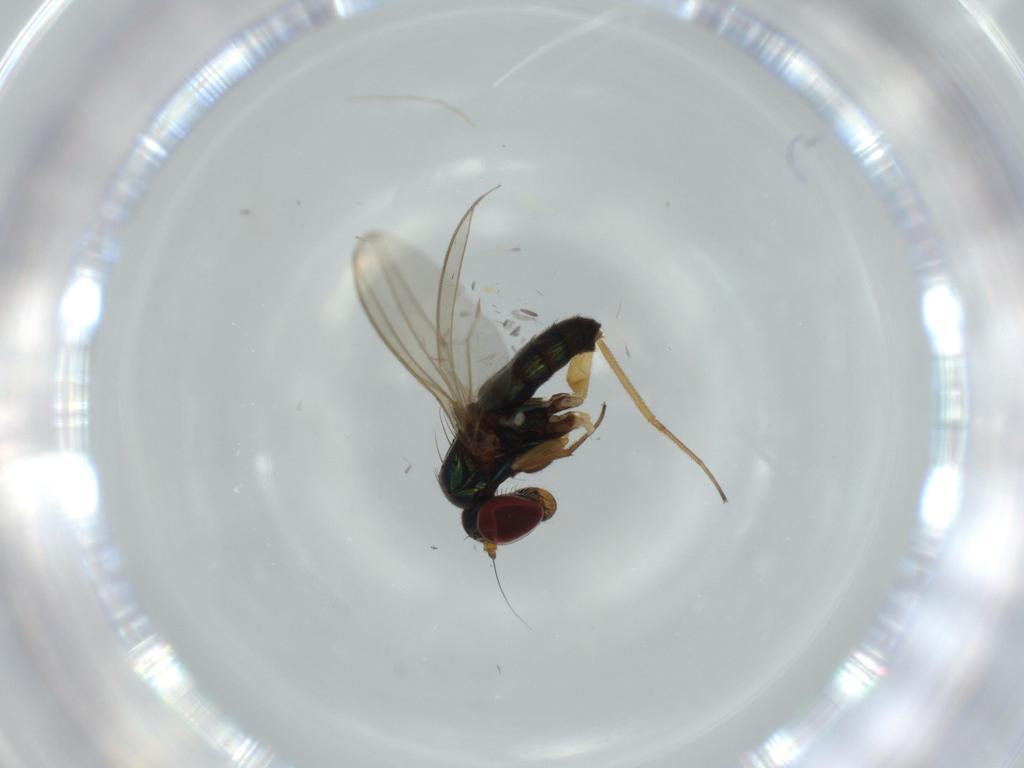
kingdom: Animalia
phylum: Arthropoda
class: Insecta
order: Diptera
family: Dolichopodidae
